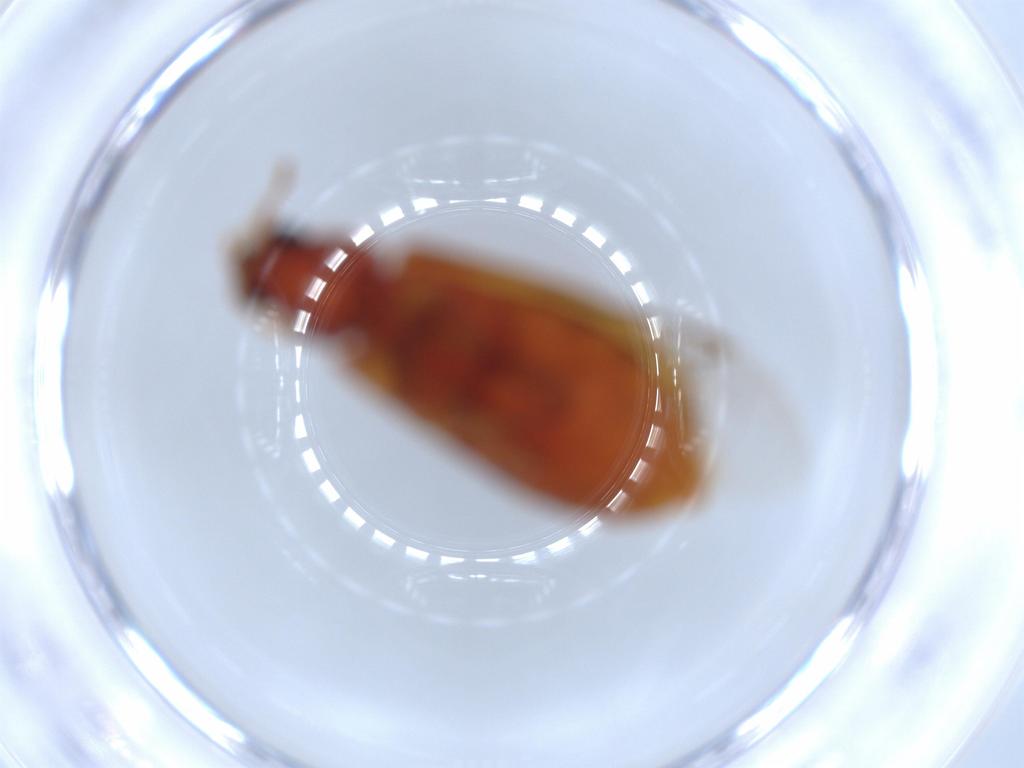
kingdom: Animalia
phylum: Arthropoda
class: Insecta
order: Coleoptera
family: Mycteridae
